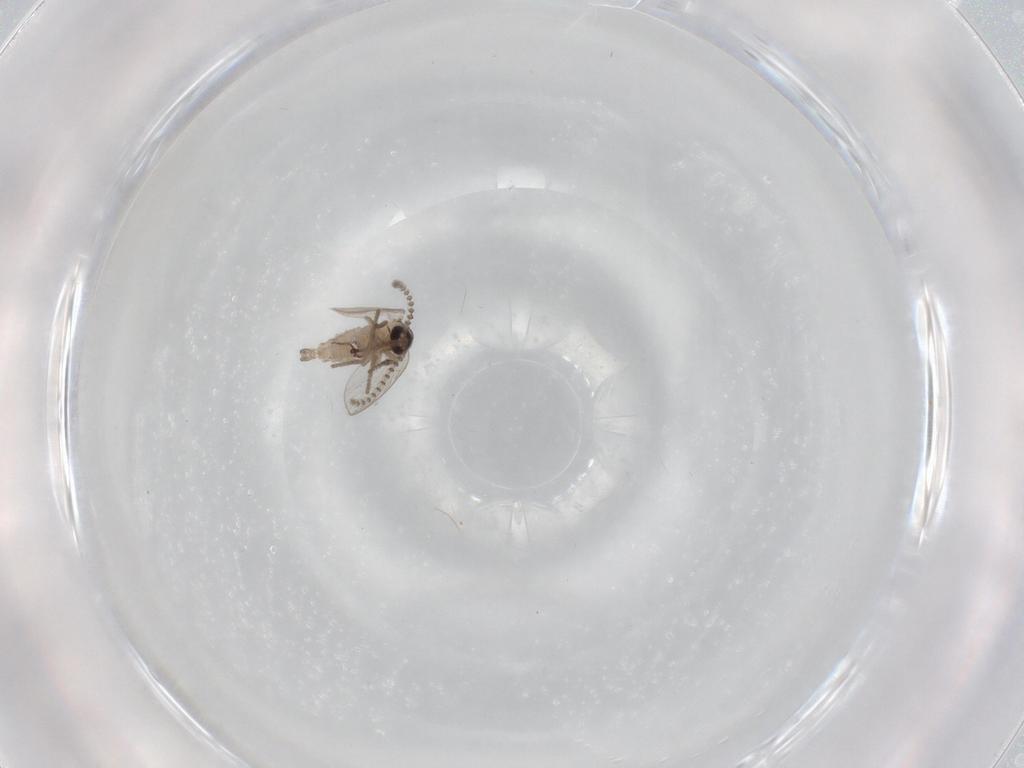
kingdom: Animalia
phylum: Arthropoda
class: Insecta
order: Diptera
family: Psychodidae
